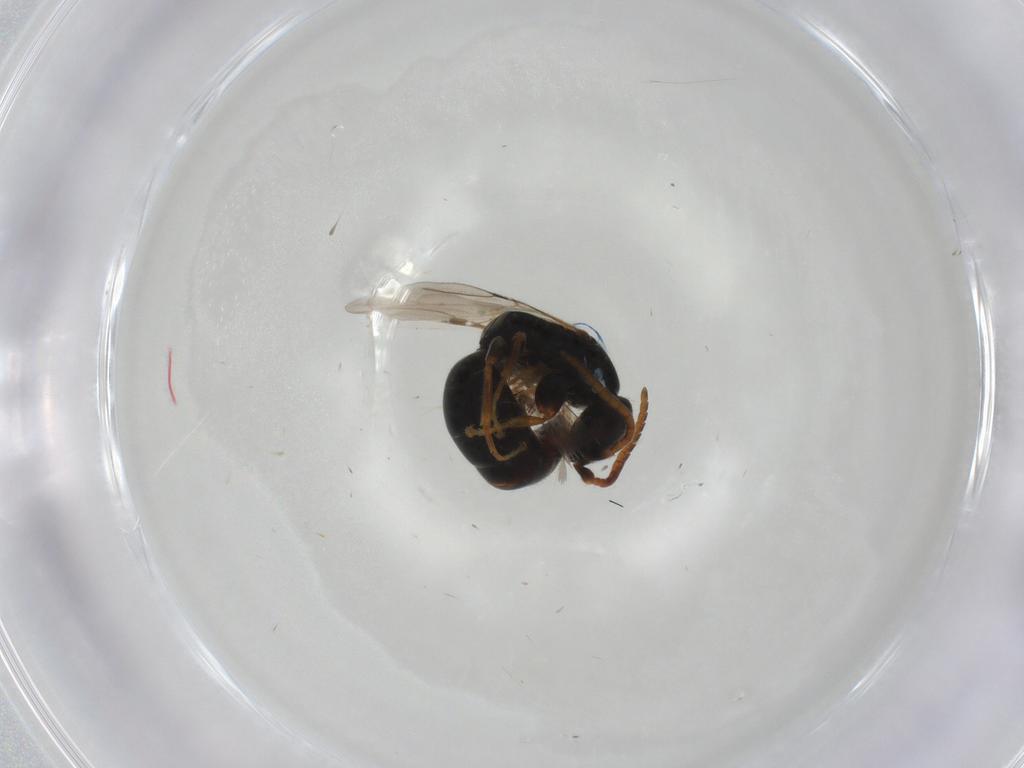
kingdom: Animalia
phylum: Arthropoda
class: Insecta
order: Hymenoptera
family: Bethylidae
